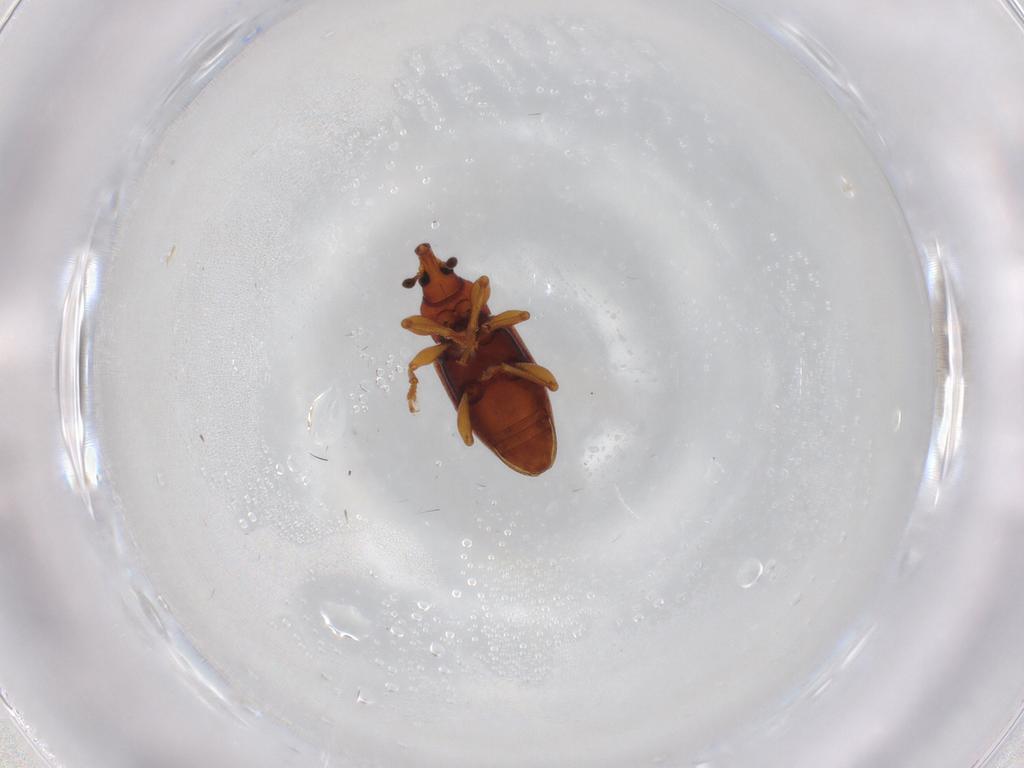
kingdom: Animalia
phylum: Arthropoda
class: Insecta
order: Coleoptera
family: Curculionidae
